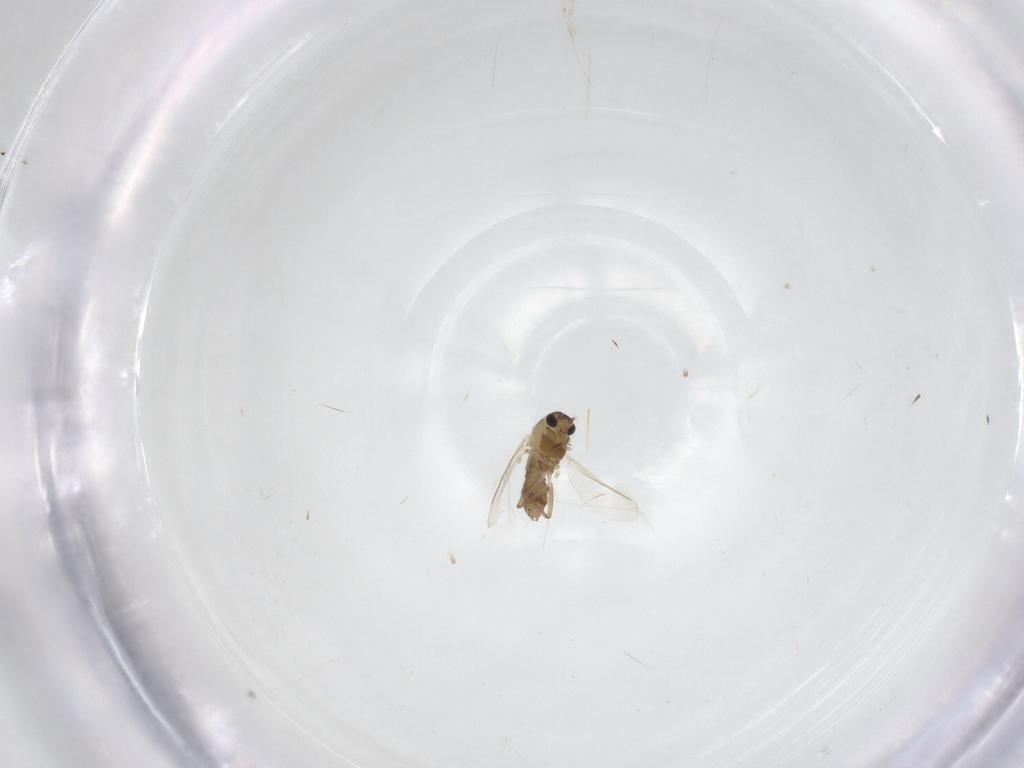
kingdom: Animalia
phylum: Arthropoda
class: Insecta
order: Diptera
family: Chironomidae
